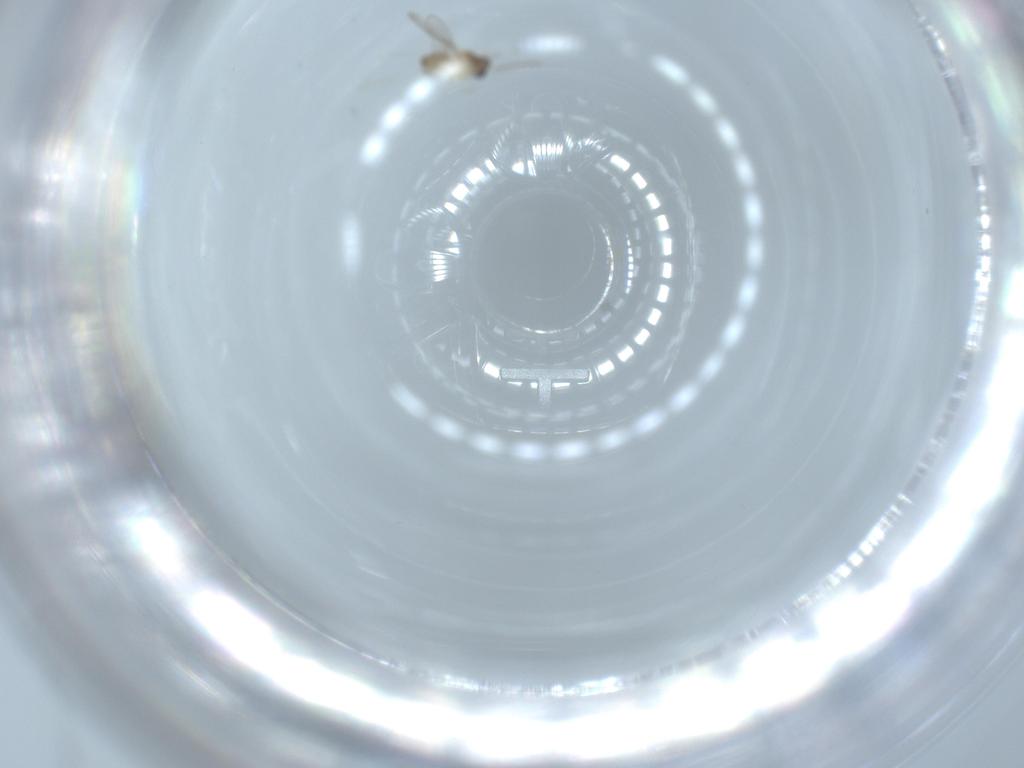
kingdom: Animalia
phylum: Arthropoda
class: Insecta
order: Diptera
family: Cecidomyiidae
